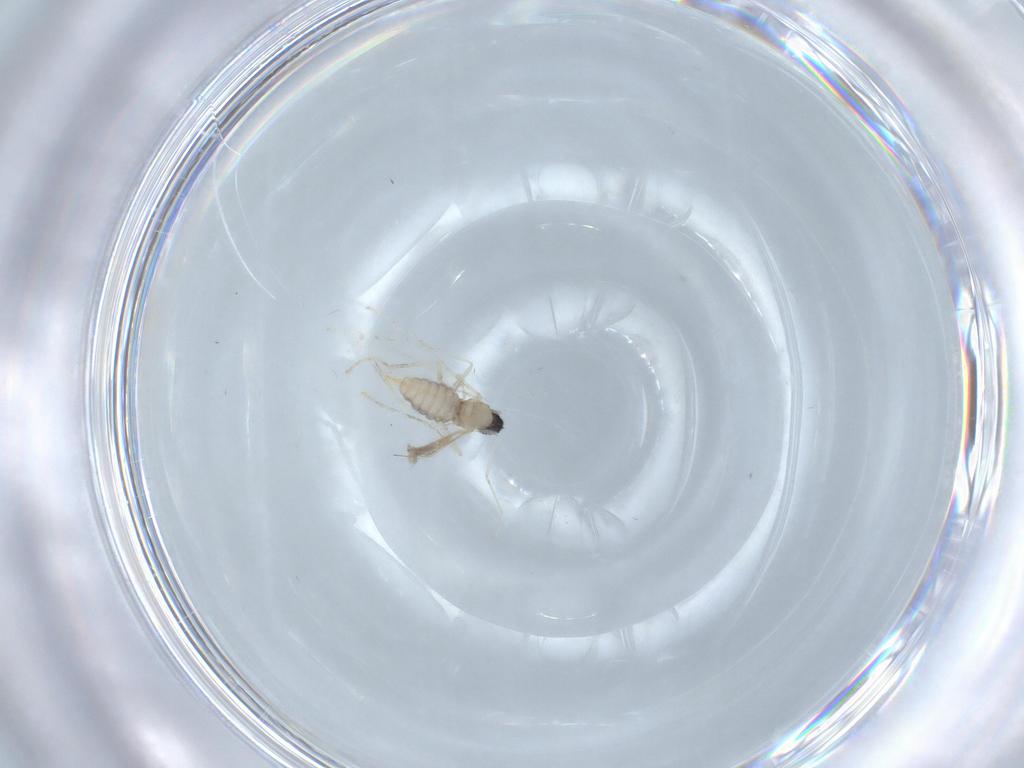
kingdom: Animalia
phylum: Arthropoda
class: Insecta
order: Diptera
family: Cecidomyiidae
